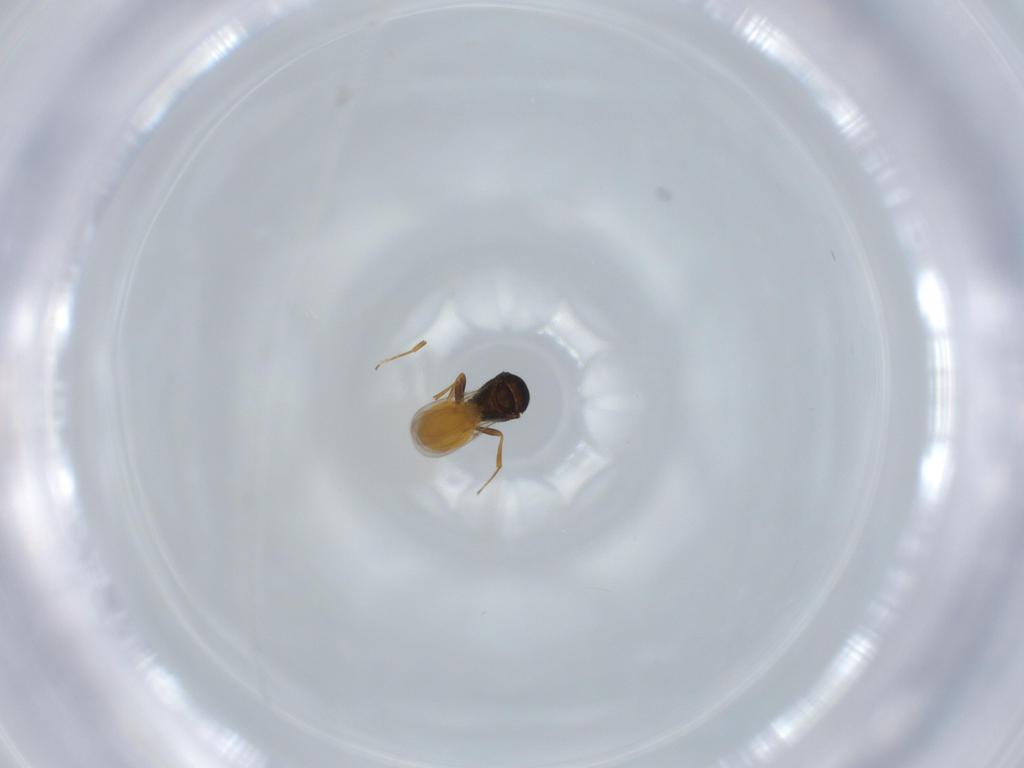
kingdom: Animalia
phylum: Arthropoda
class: Insecta
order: Hymenoptera
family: Scelionidae
